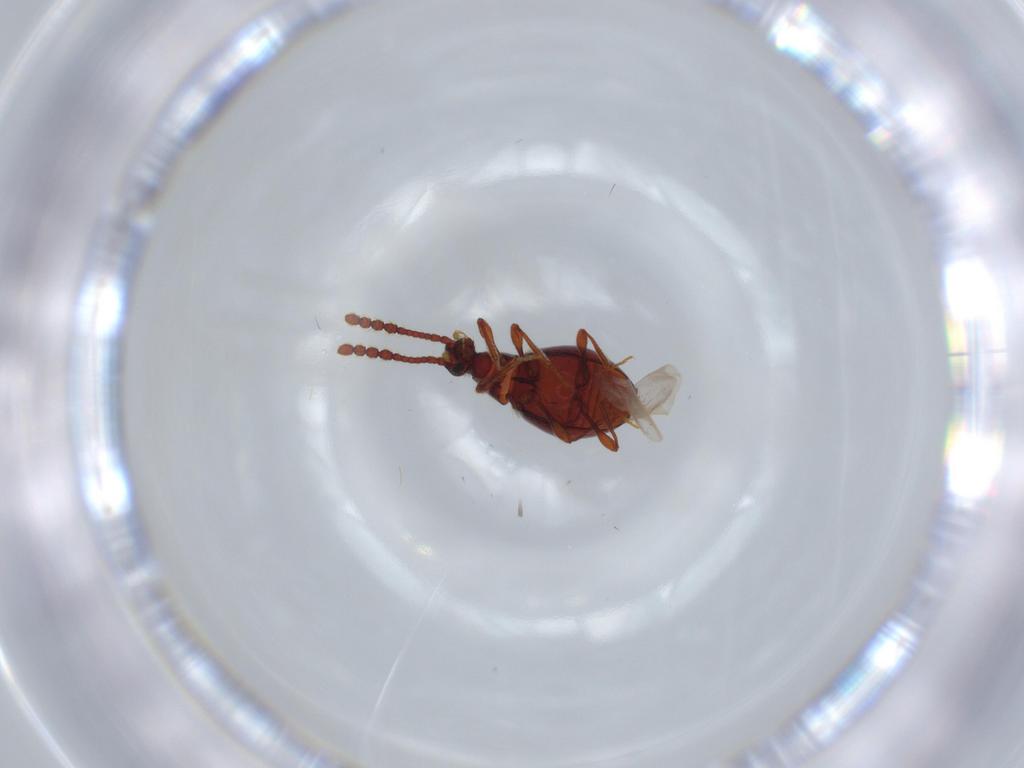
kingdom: Animalia
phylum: Arthropoda
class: Insecta
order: Coleoptera
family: Staphylinidae
